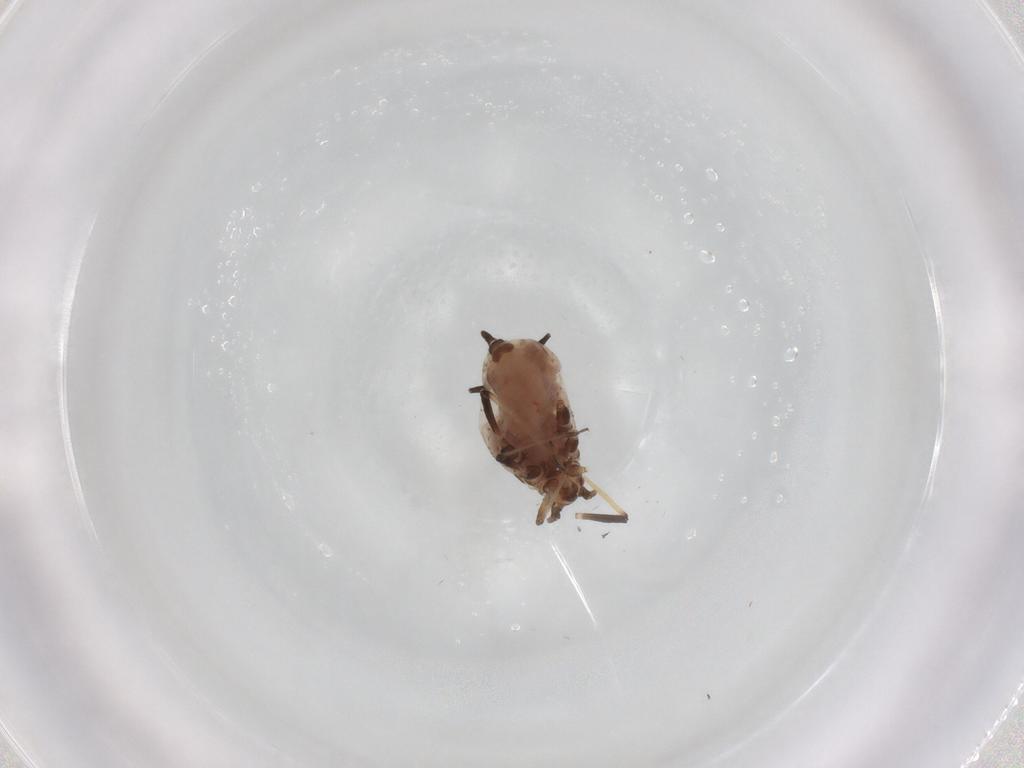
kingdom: Animalia
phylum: Arthropoda
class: Insecta
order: Hemiptera
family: Aphididae
